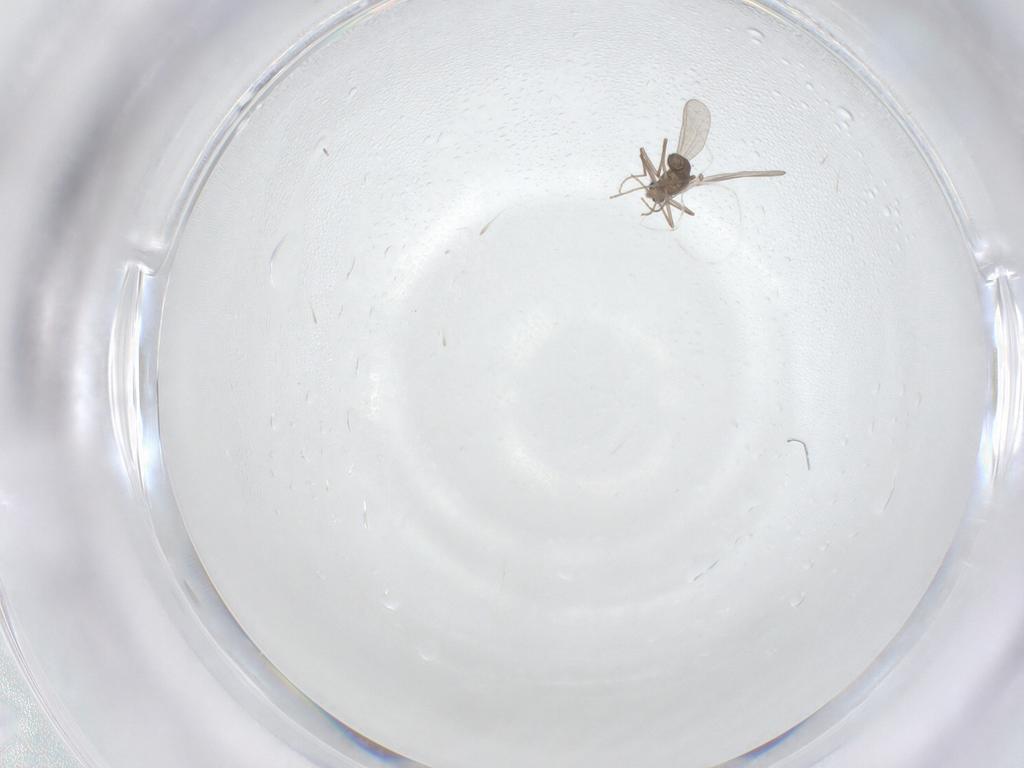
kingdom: Animalia
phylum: Arthropoda
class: Insecta
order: Diptera
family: Chironomidae
